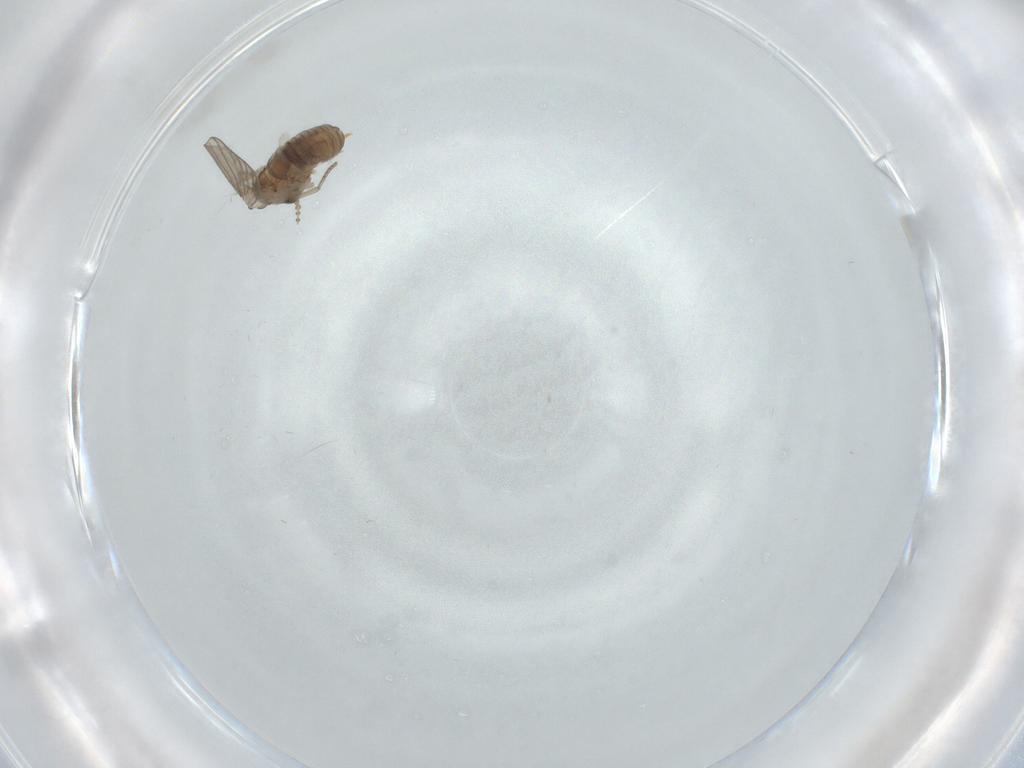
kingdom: Animalia
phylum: Arthropoda
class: Insecta
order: Diptera
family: Psychodidae
